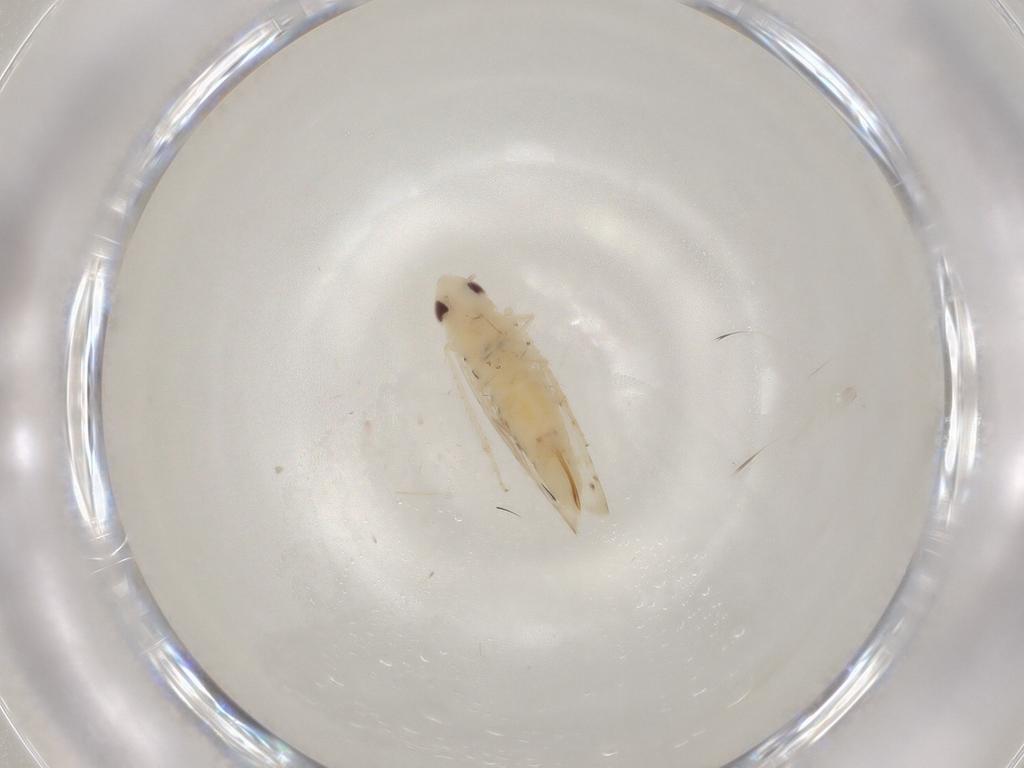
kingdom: Animalia
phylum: Arthropoda
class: Insecta
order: Hemiptera
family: Cicadellidae
